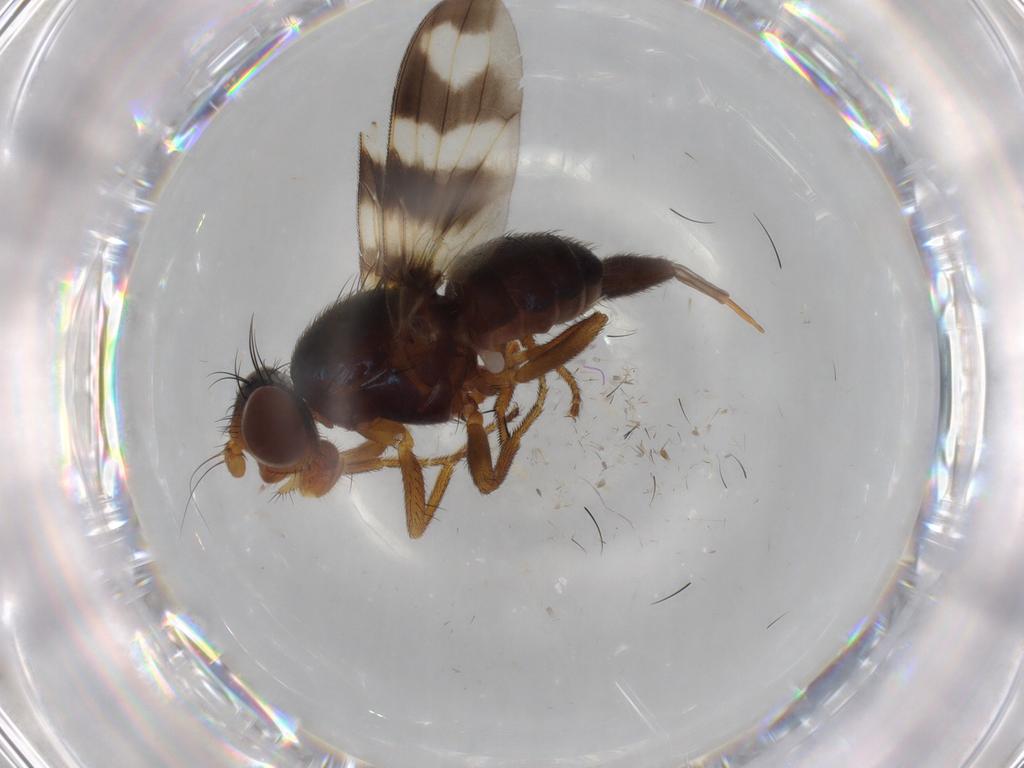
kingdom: Animalia
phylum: Arthropoda
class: Insecta
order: Diptera
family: Ulidiidae
